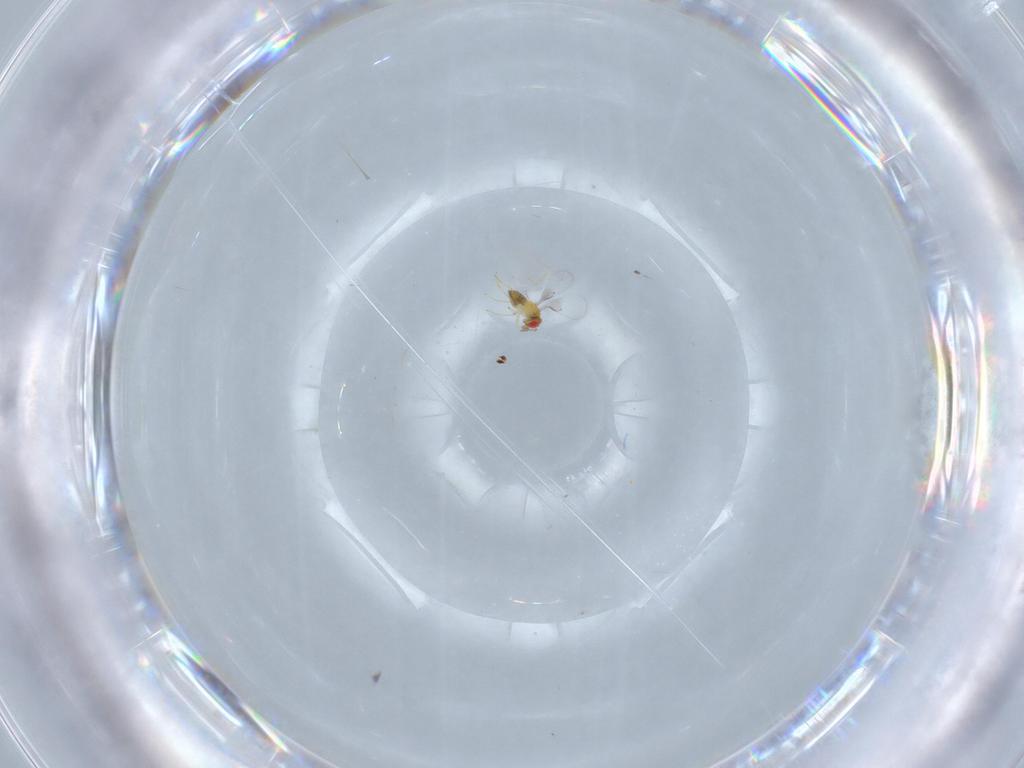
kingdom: Animalia
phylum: Arthropoda
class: Insecta
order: Hymenoptera
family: Trichogrammatidae
